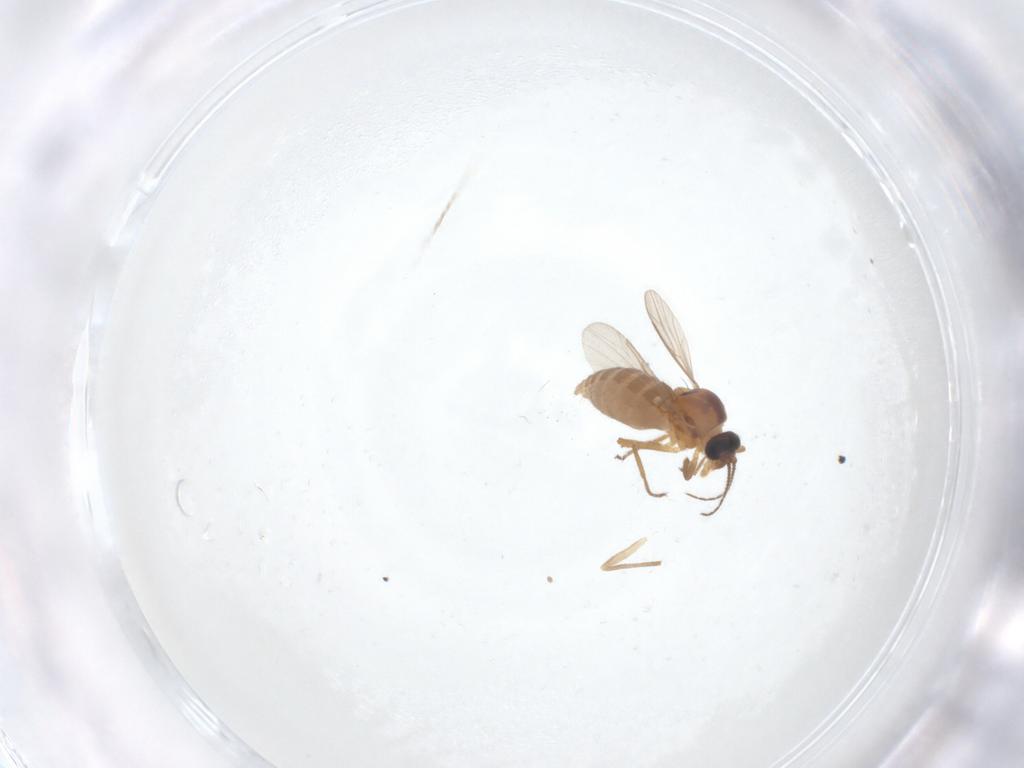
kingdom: Animalia
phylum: Arthropoda
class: Insecta
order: Diptera
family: Ceratopogonidae
